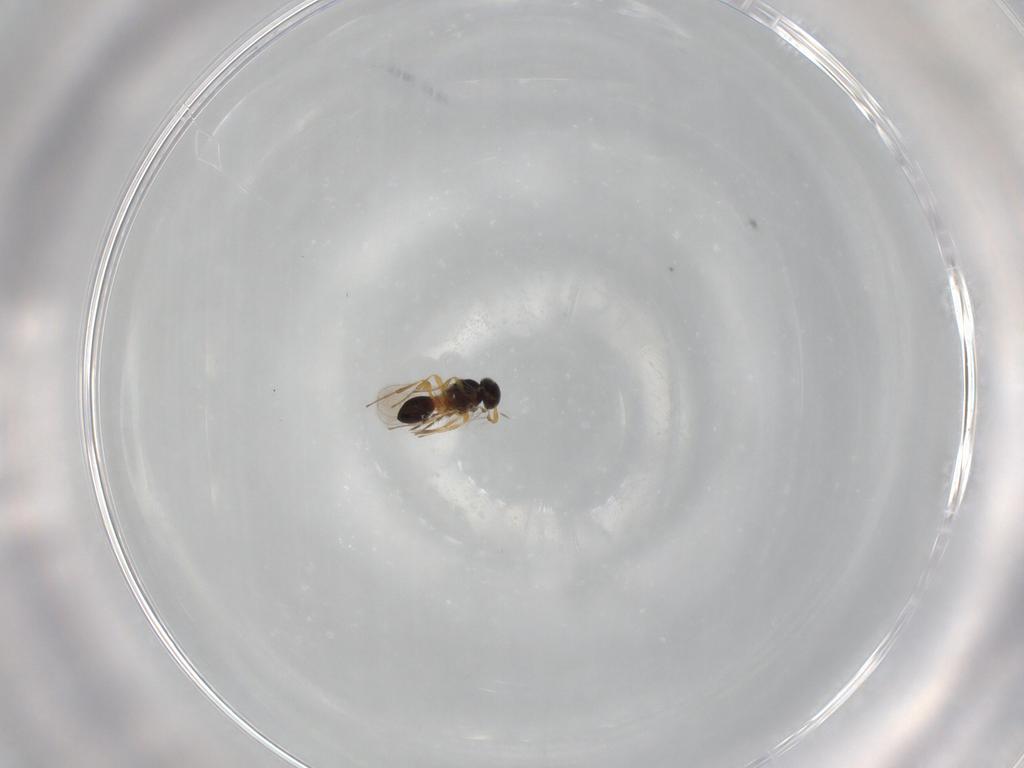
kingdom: Animalia
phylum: Arthropoda
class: Insecta
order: Hymenoptera
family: Platygastridae
